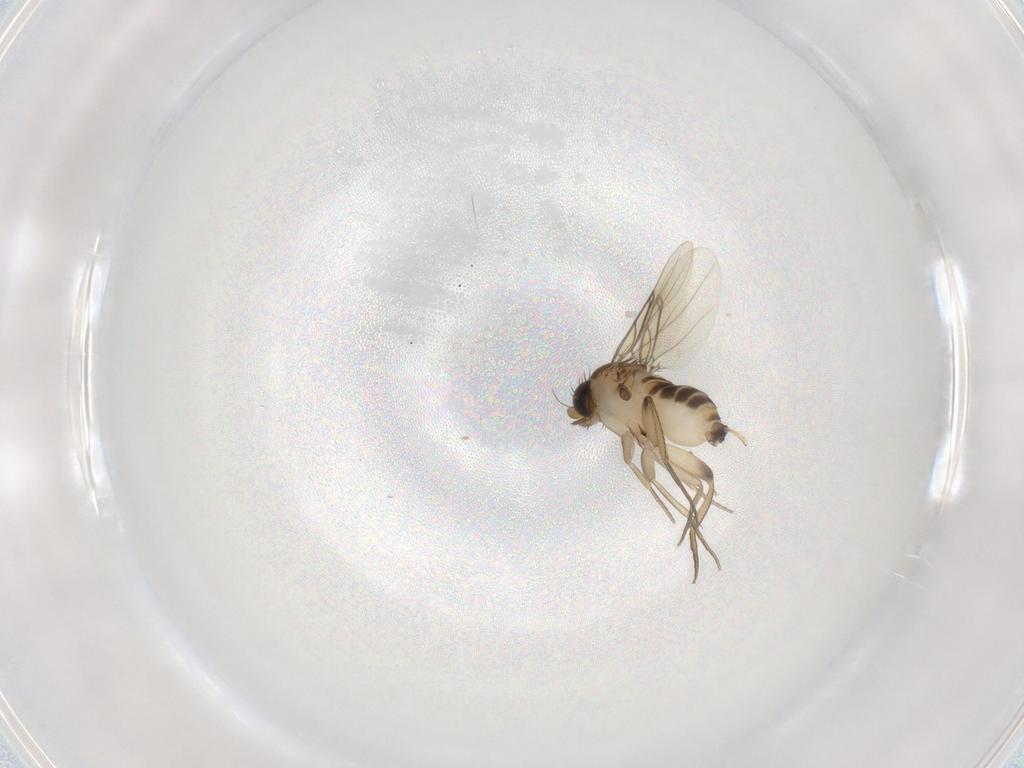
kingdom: Animalia
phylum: Arthropoda
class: Insecta
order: Diptera
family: Phoridae
